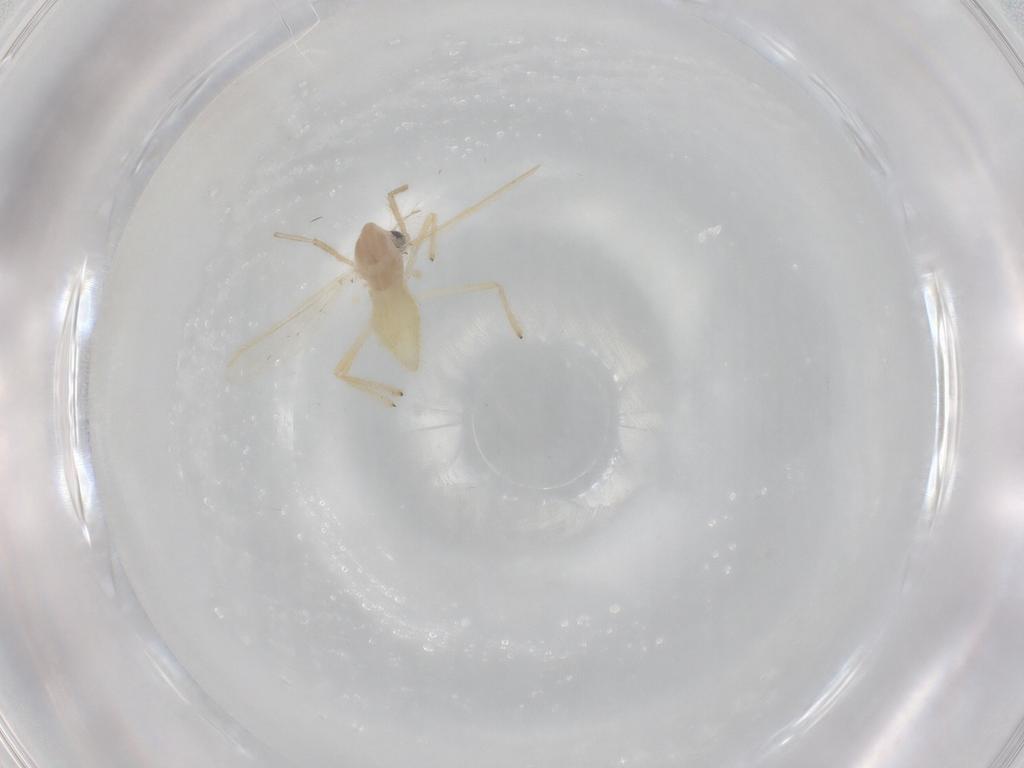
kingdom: Animalia
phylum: Arthropoda
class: Insecta
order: Diptera
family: Chironomidae
